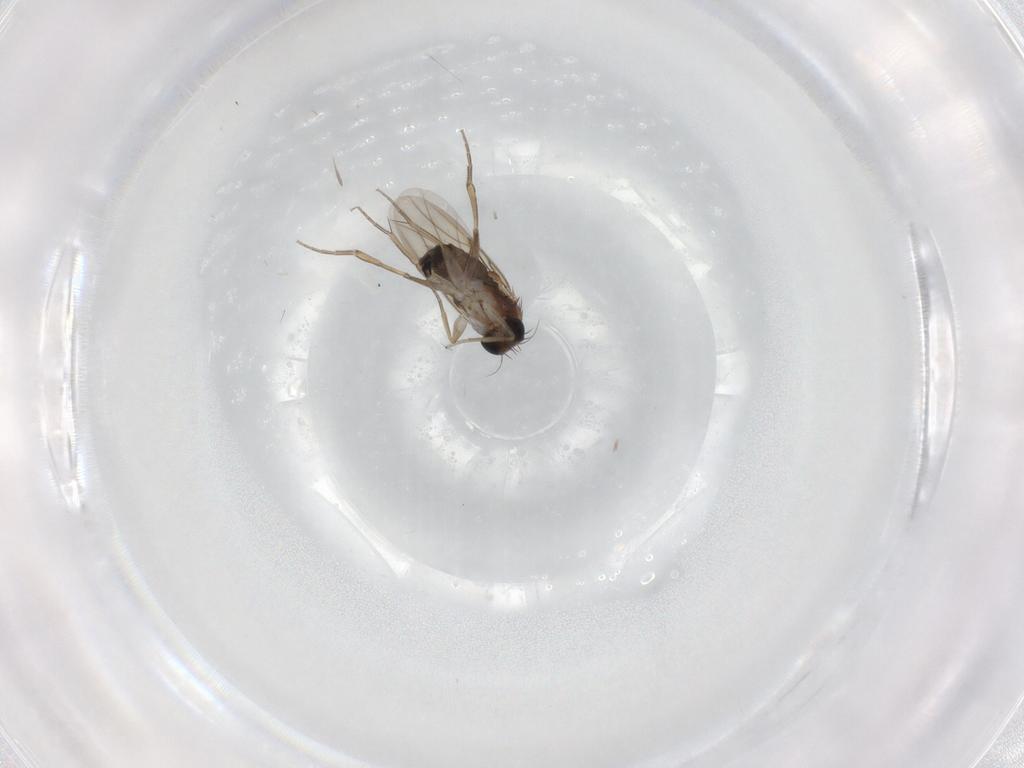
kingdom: Animalia
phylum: Arthropoda
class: Insecta
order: Diptera
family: Phoridae
